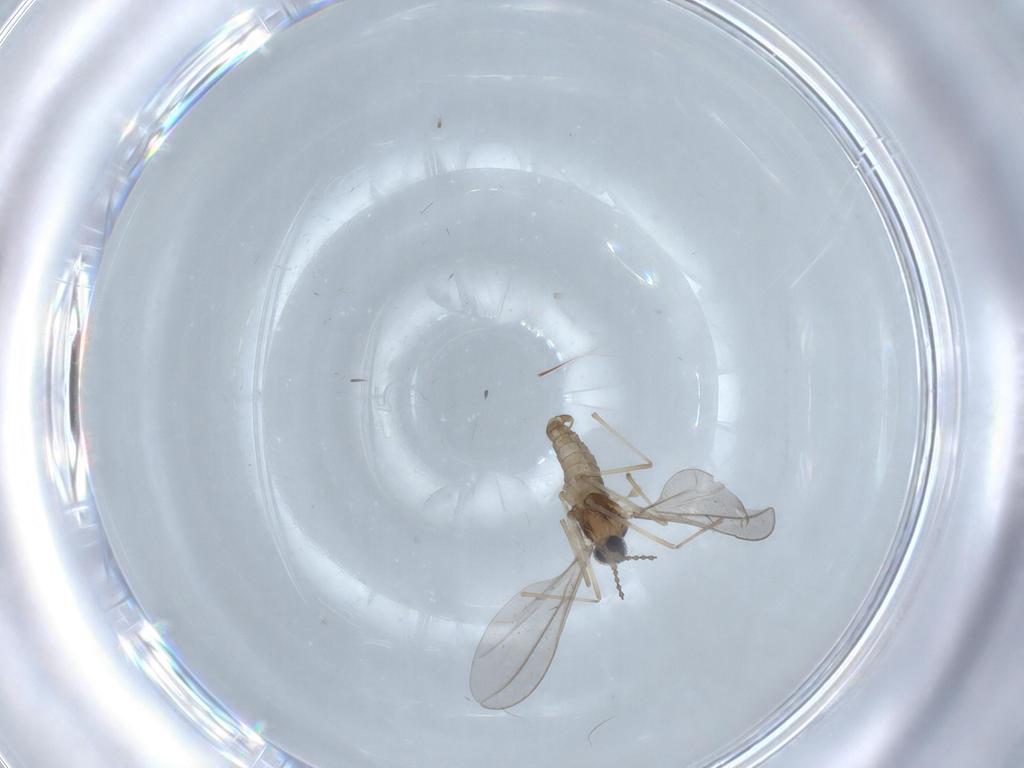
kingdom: Animalia
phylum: Arthropoda
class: Insecta
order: Diptera
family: Cecidomyiidae
